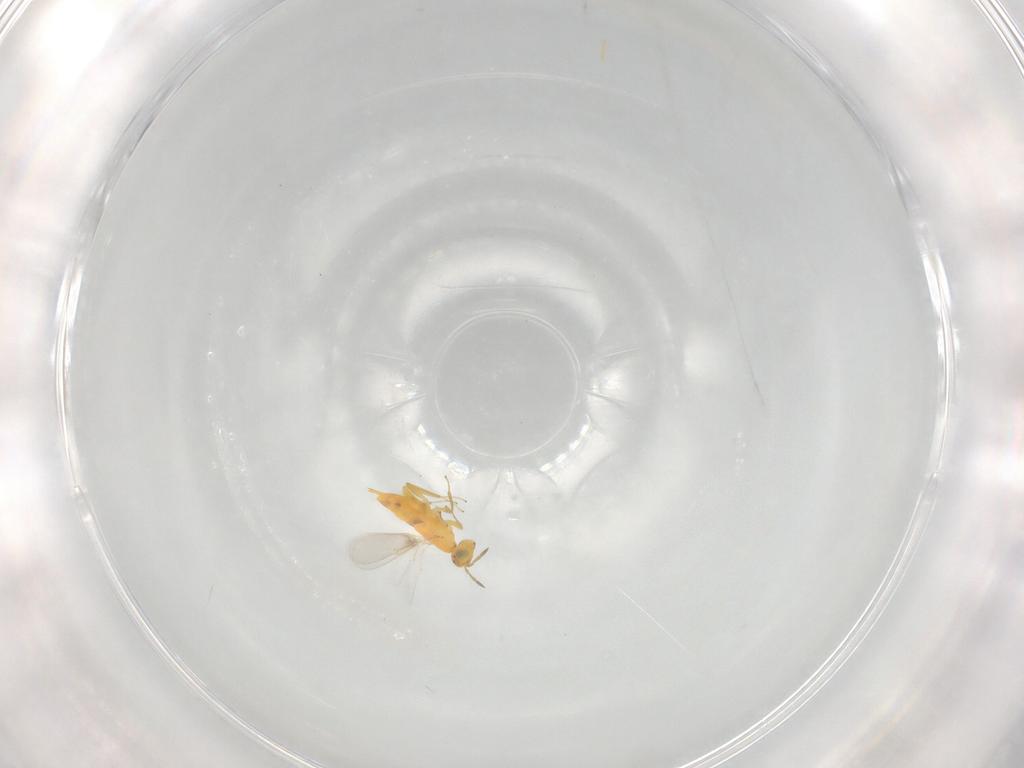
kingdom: Animalia
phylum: Arthropoda
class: Insecta
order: Hymenoptera
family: Aphelinidae
